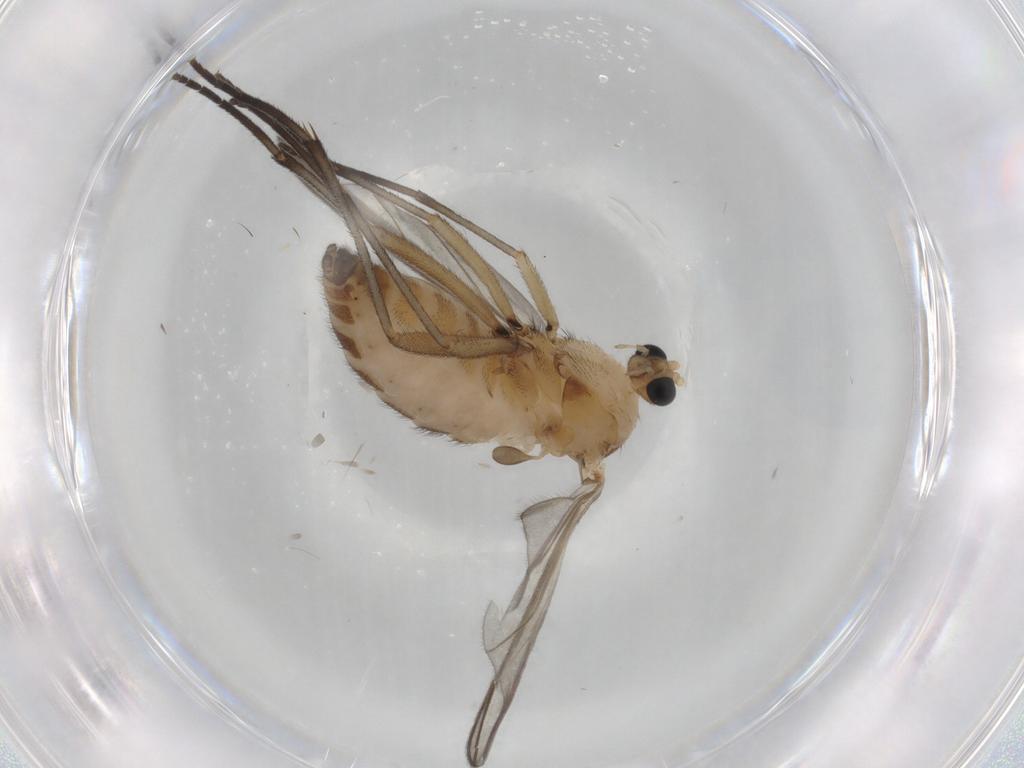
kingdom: Animalia
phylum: Arthropoda
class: Insecta
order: Diptera
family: Sciaridae
